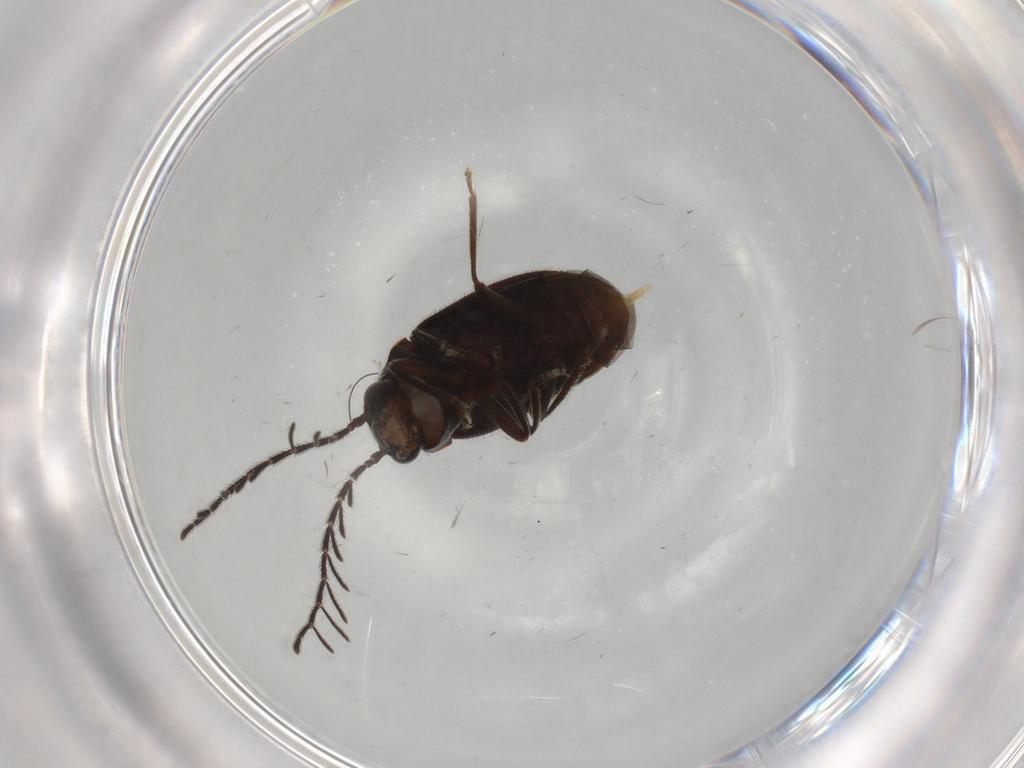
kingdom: Animalia
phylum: Arthropoda
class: Insecta
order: Coleoptera
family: Ptilodactylidae
